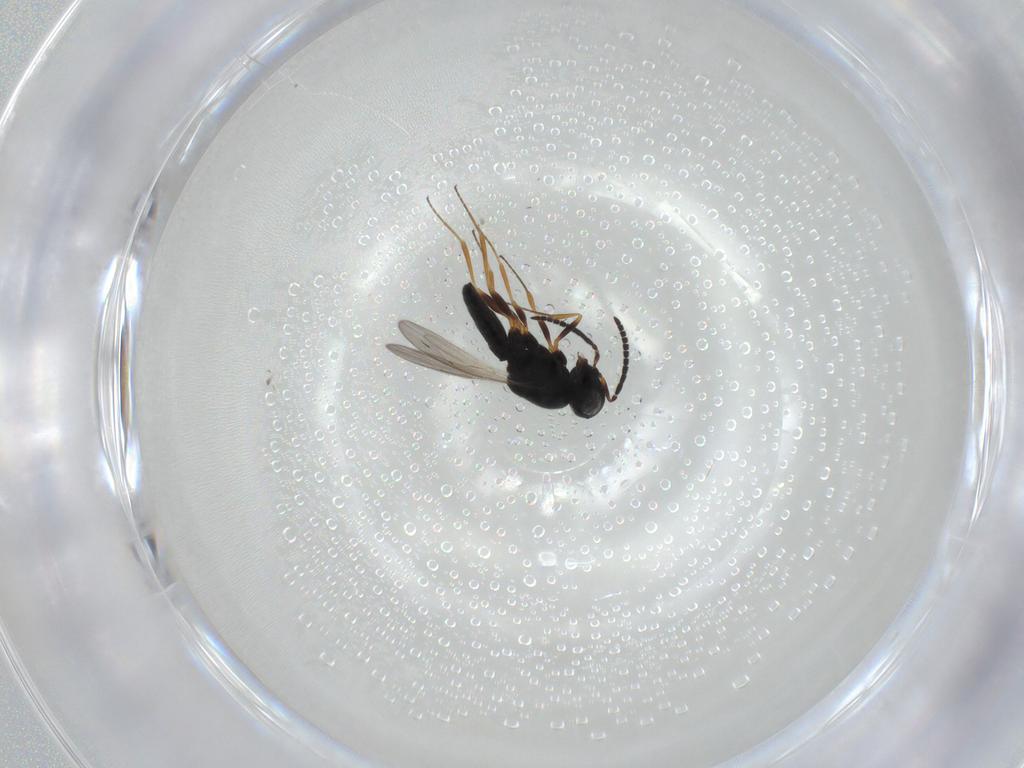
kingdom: Animalia
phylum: Arthropoda
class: Insecta
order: Hymenoptera
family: Scelionidae
